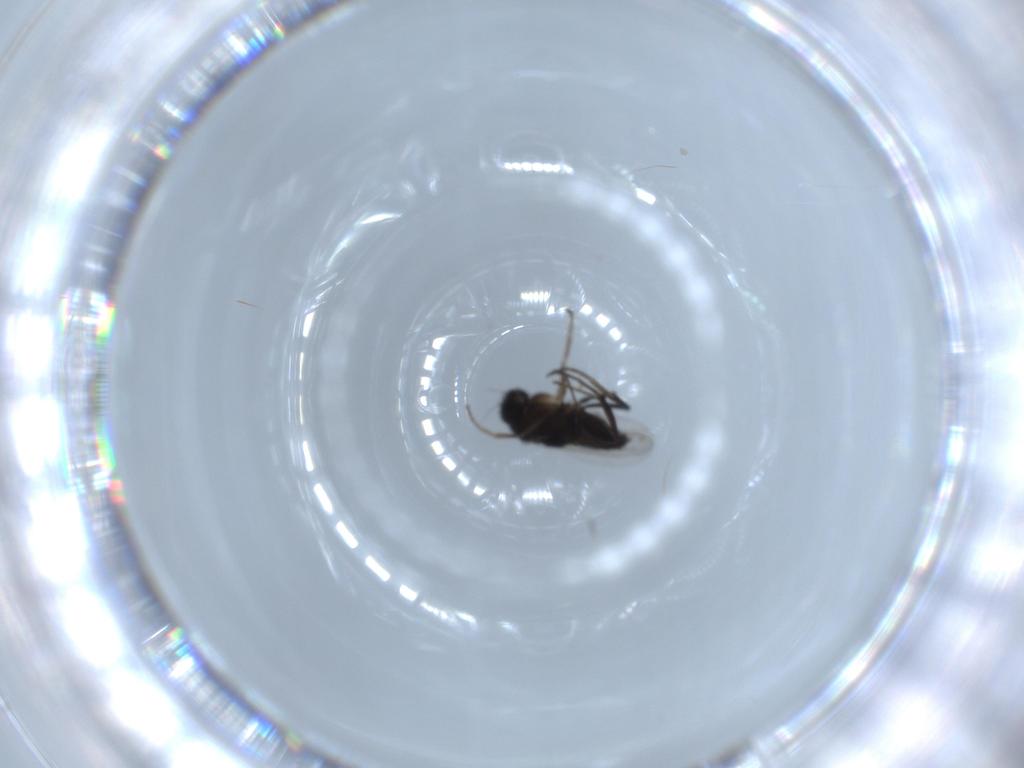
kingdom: Animalia
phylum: Arthropoda
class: Insecta
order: Diptera
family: Phoridae
